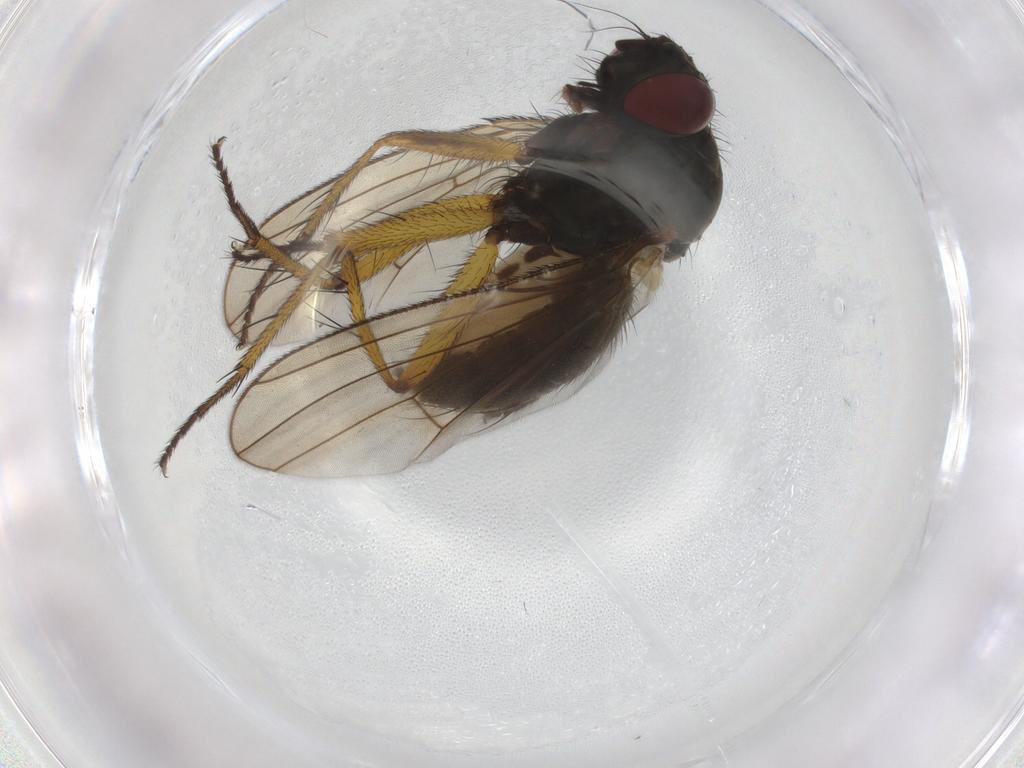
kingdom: Animalia
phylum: Arthropoda
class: Insecta
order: Diptera
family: Muscidae
